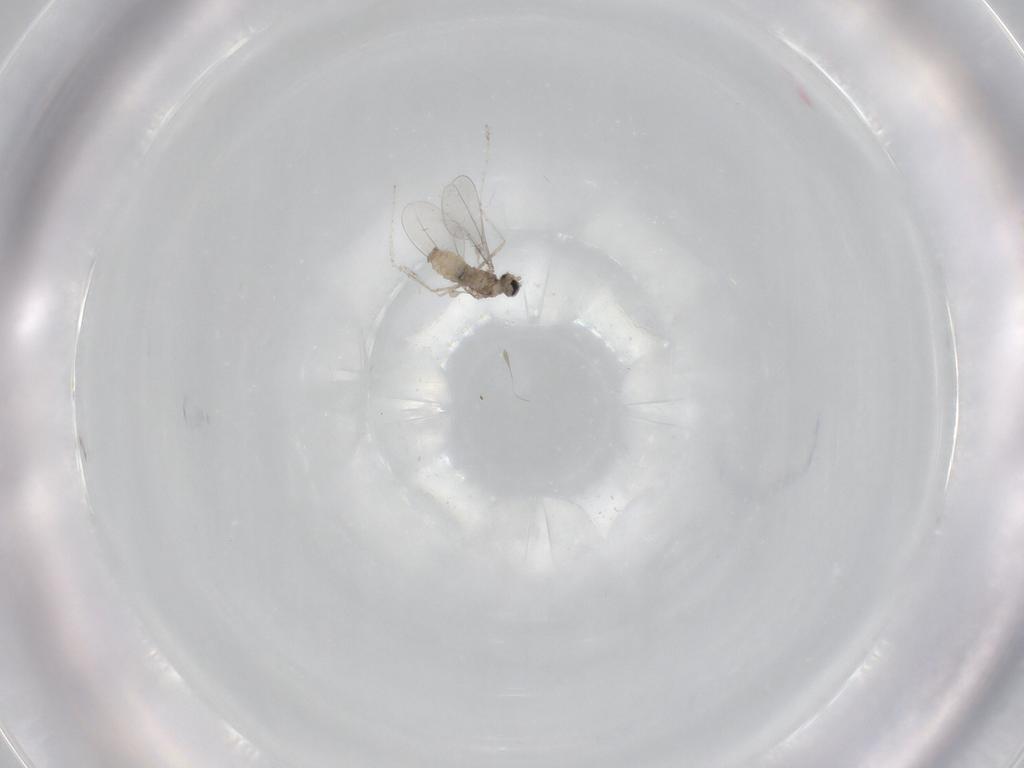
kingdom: Animalia
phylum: Arthropoda
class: Insecta
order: Diptera
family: Cecidomyiidae
